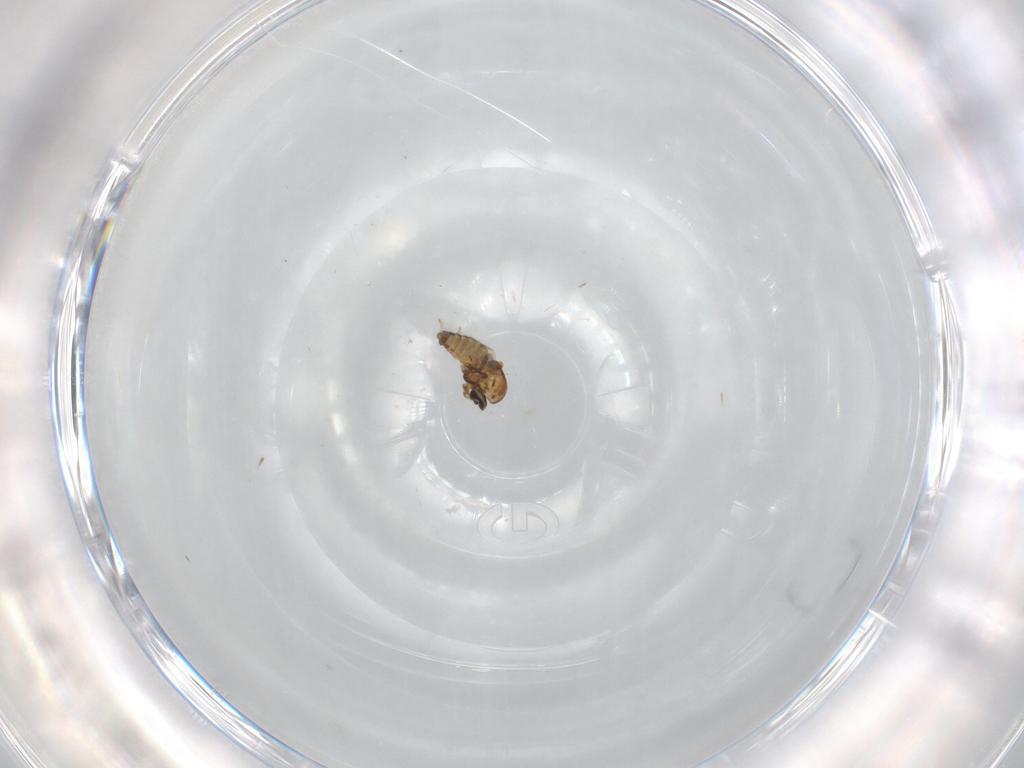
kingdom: Animalia
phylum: Arthropoda
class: Insecta
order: Diptera
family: Ceratopogonidae
